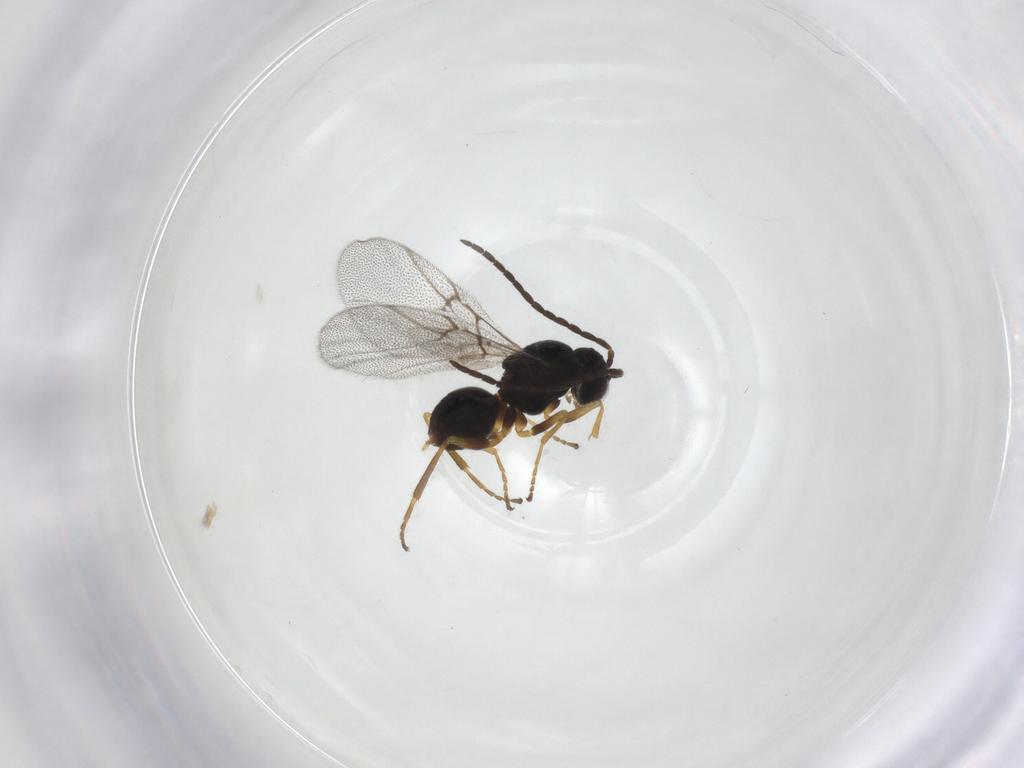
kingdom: Animalia
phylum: Arthropoda
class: Insecta
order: Hymenoptera
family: Cynipidae
